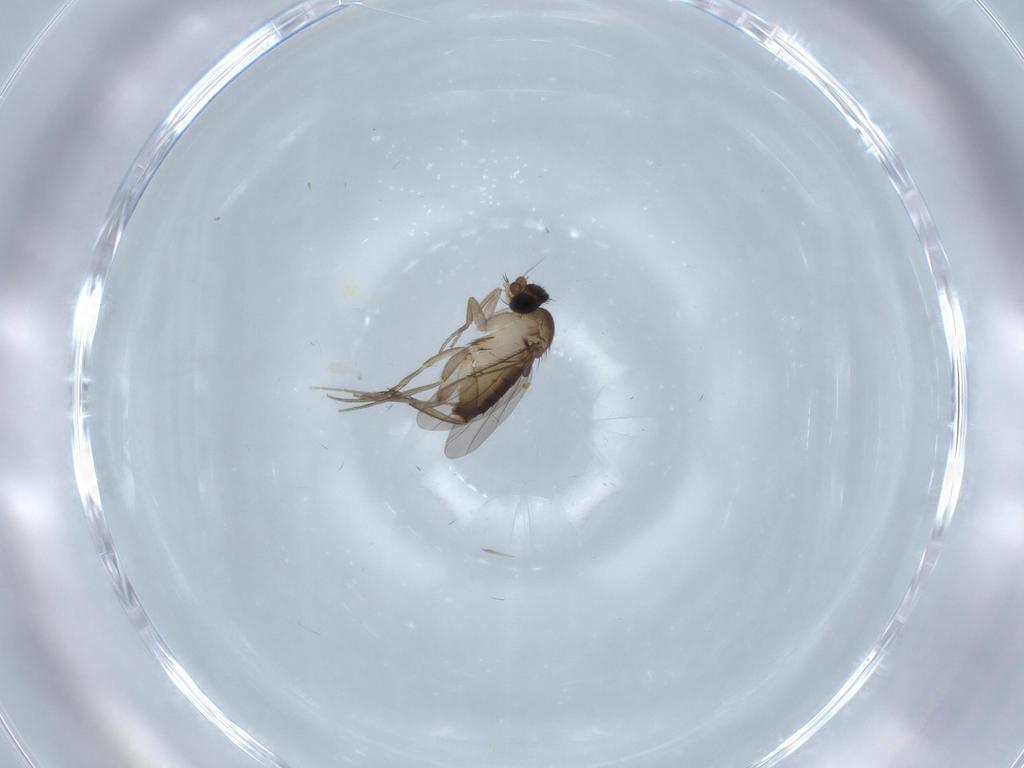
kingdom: Animalia
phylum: Arthropoda
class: Insecta
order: Diptera
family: Phoridae
